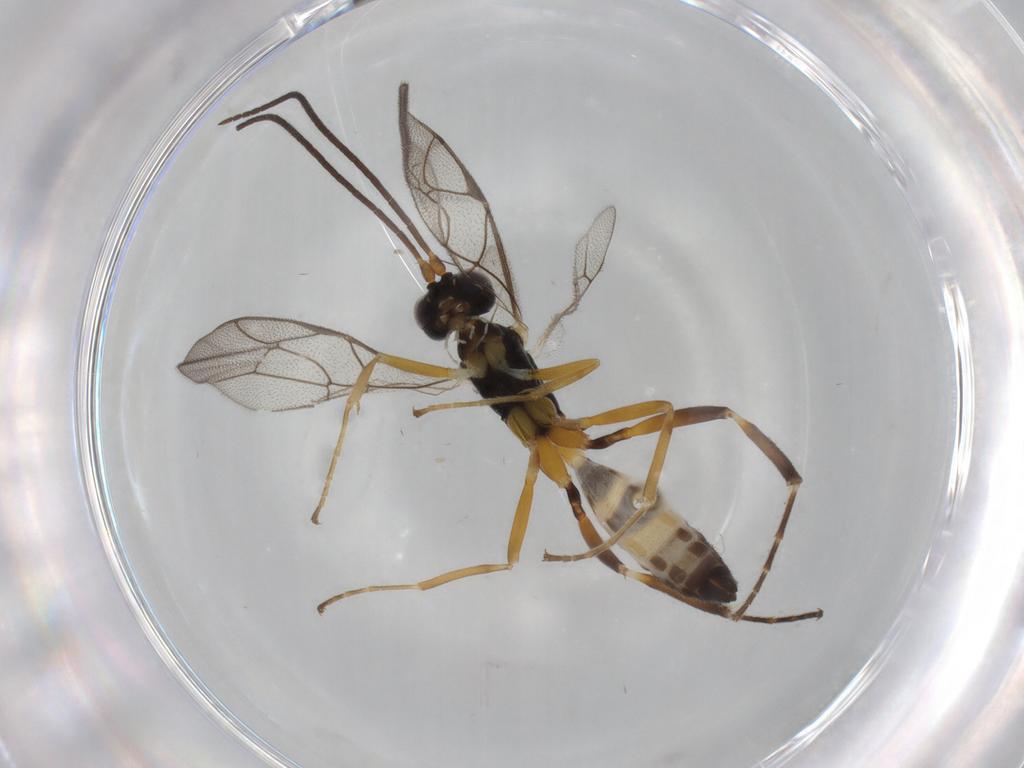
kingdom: Animalia
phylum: Arthropoda
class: Insecta
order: Hymenoptera
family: Ichneumonidae
